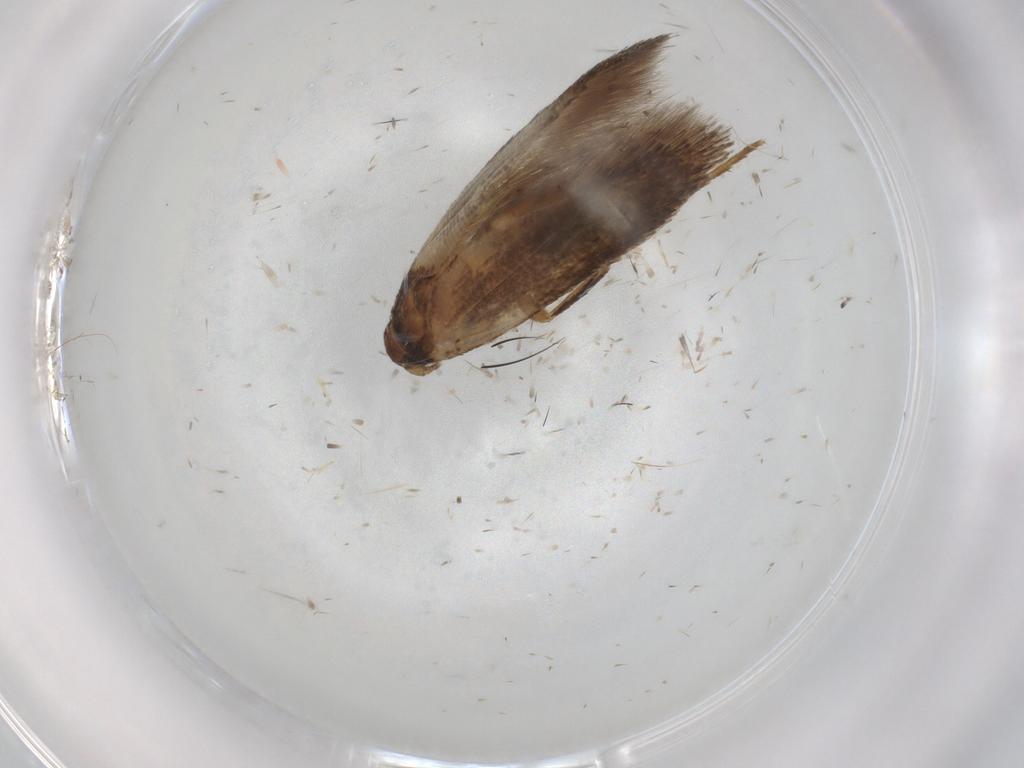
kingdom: Animalia
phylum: Arthropoda
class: Insecta
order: Lepidoptera
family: Cosmopterigidae
